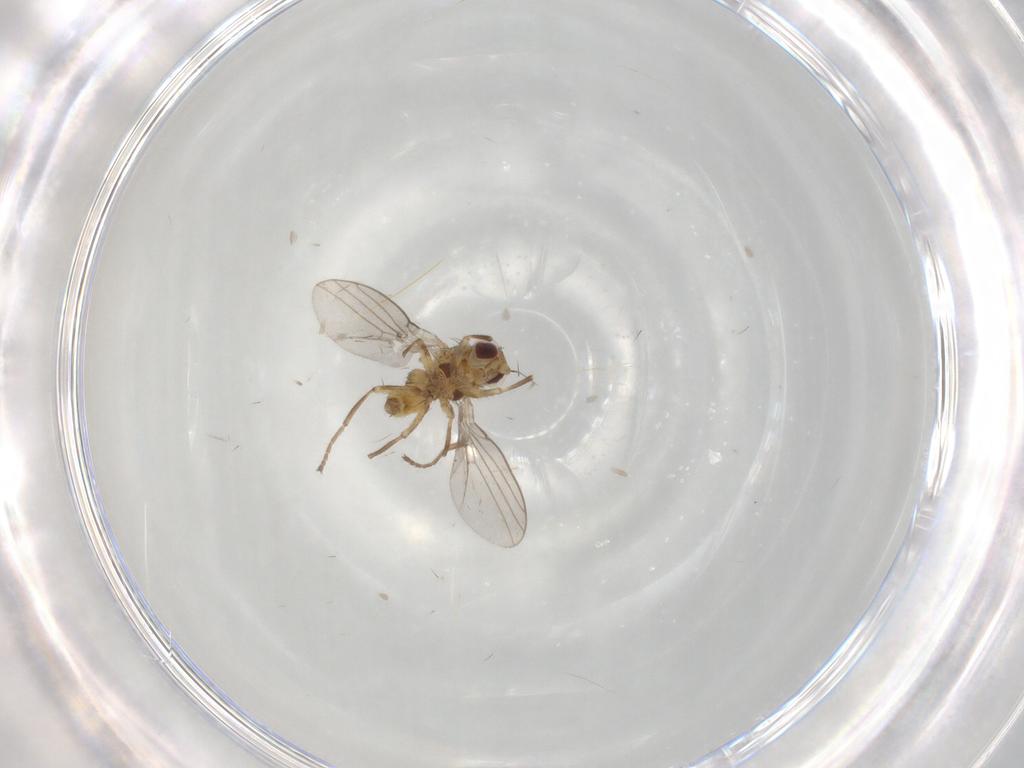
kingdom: Animalia
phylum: Arthropoda
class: Insecta
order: Diptera
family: Agromyzidae
